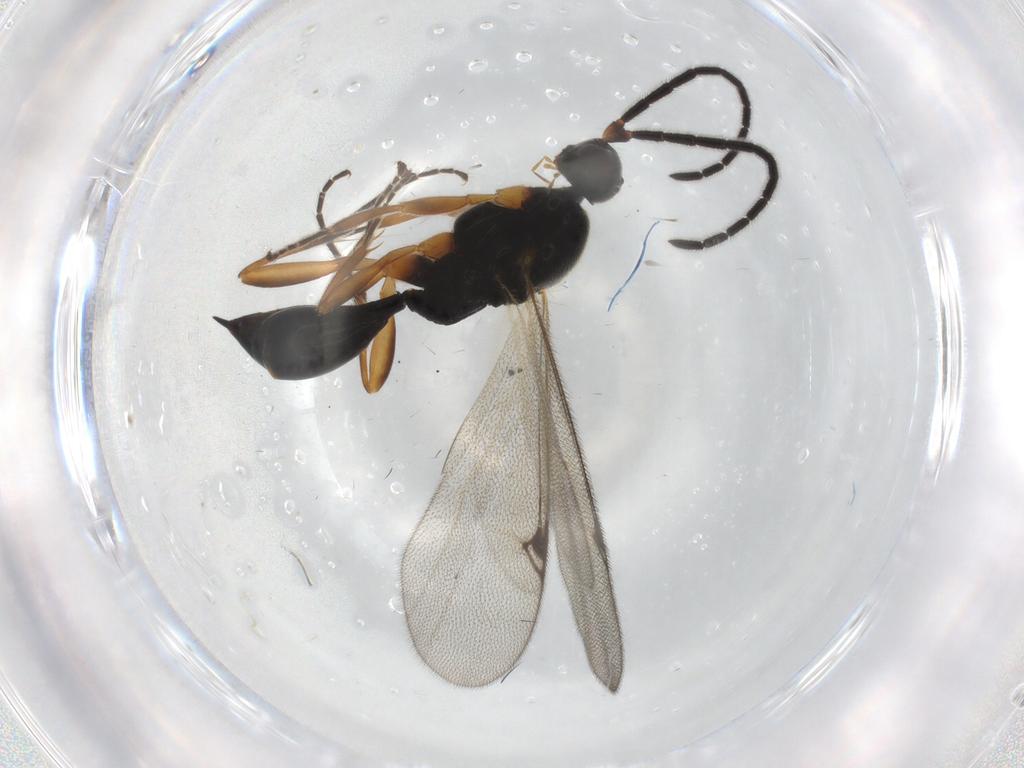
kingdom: Animalia
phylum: Arthropoda
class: Insecta
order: Hymenoptera
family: Proctotrupidae
